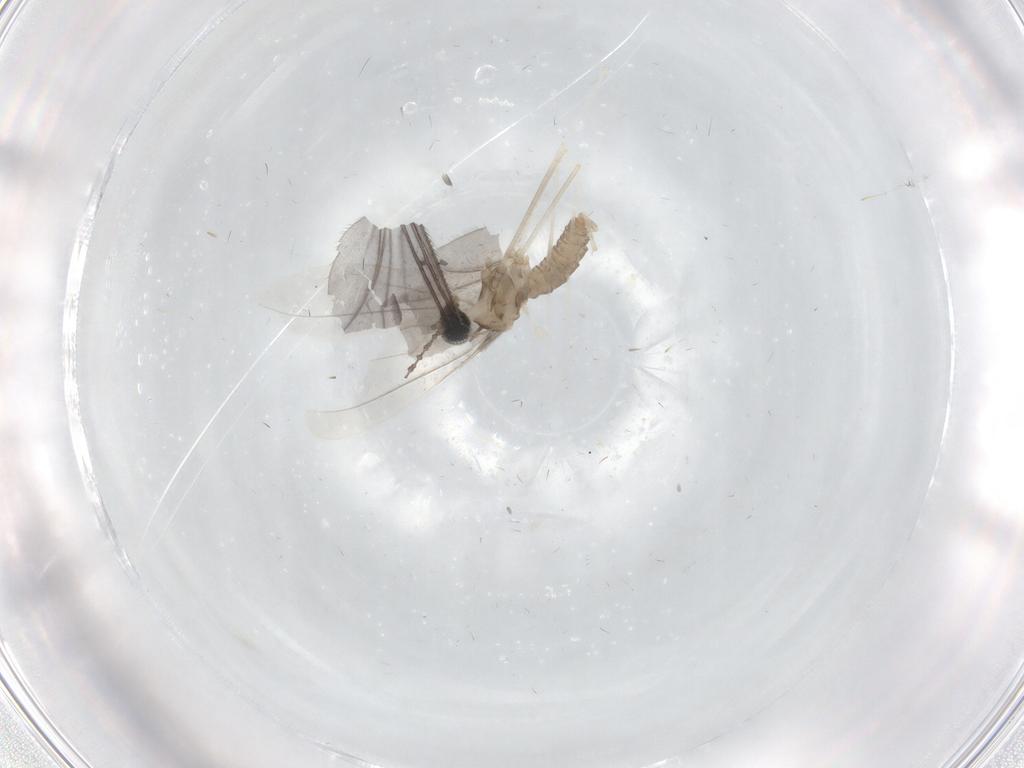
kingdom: Animalia
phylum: Arthropoda
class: Insecta
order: Diptera
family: Cecidomyiidae
